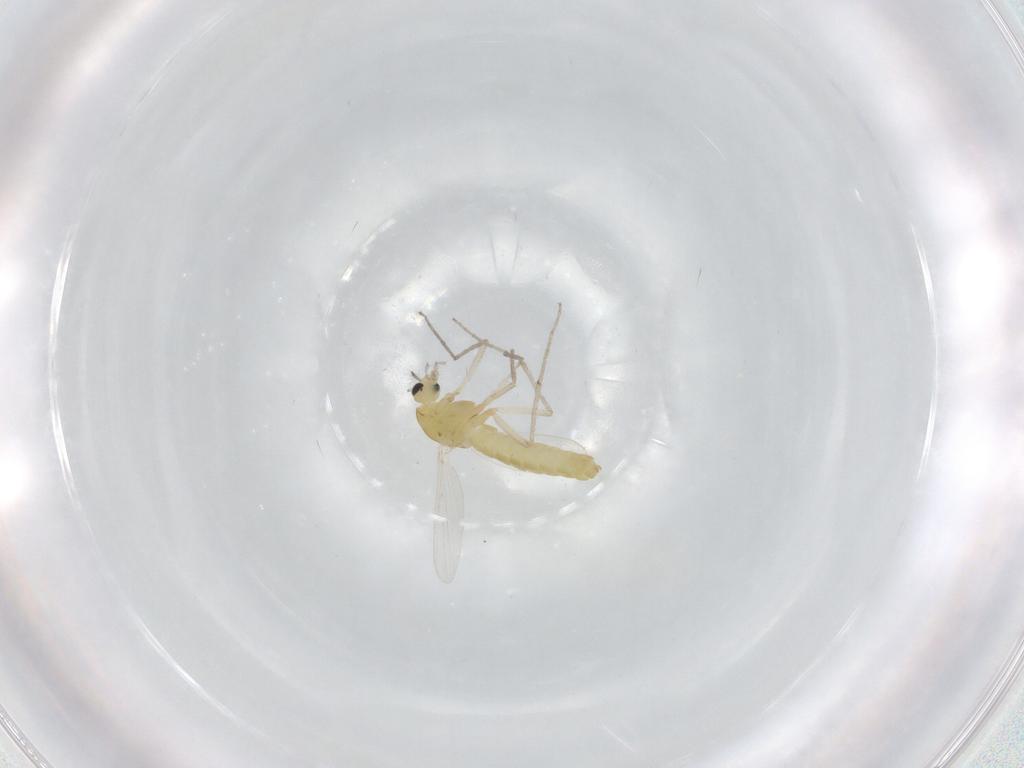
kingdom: Animalia
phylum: Arthropoda
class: Insecta
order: Diptera
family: Chironomidae
